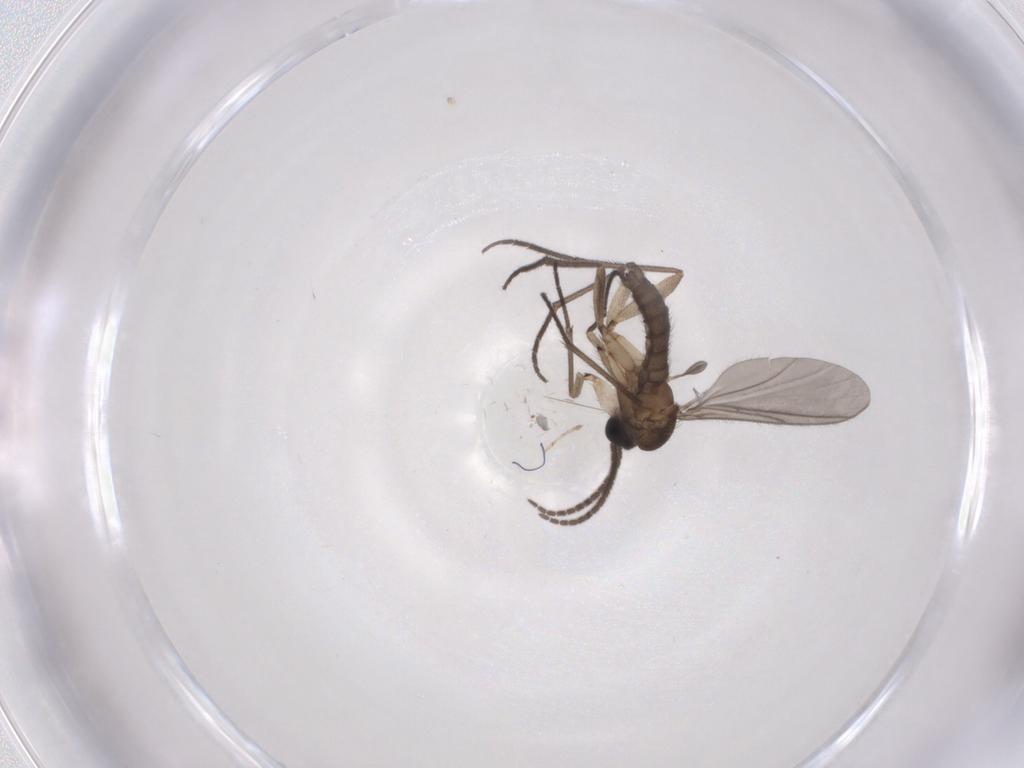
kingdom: Animalia
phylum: Arthropoda
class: Insecta
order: Diptera
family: Sciaridae
